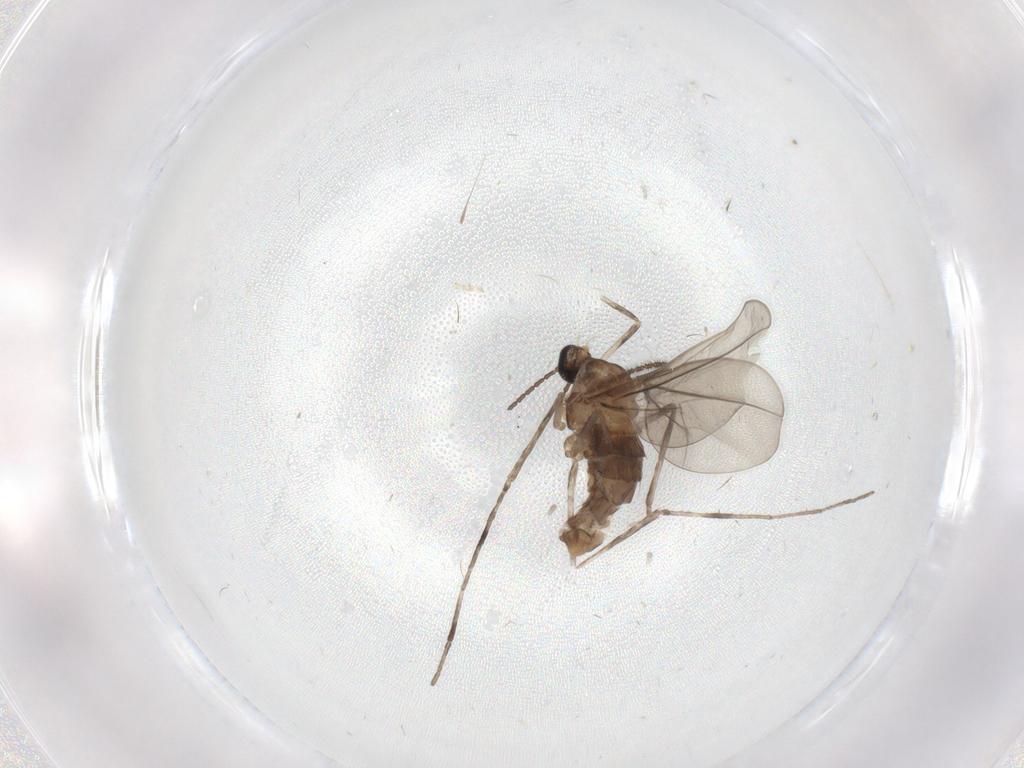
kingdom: Animalia
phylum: Arthropoda
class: Insecta
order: Diptera
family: Cecidomyiidae
